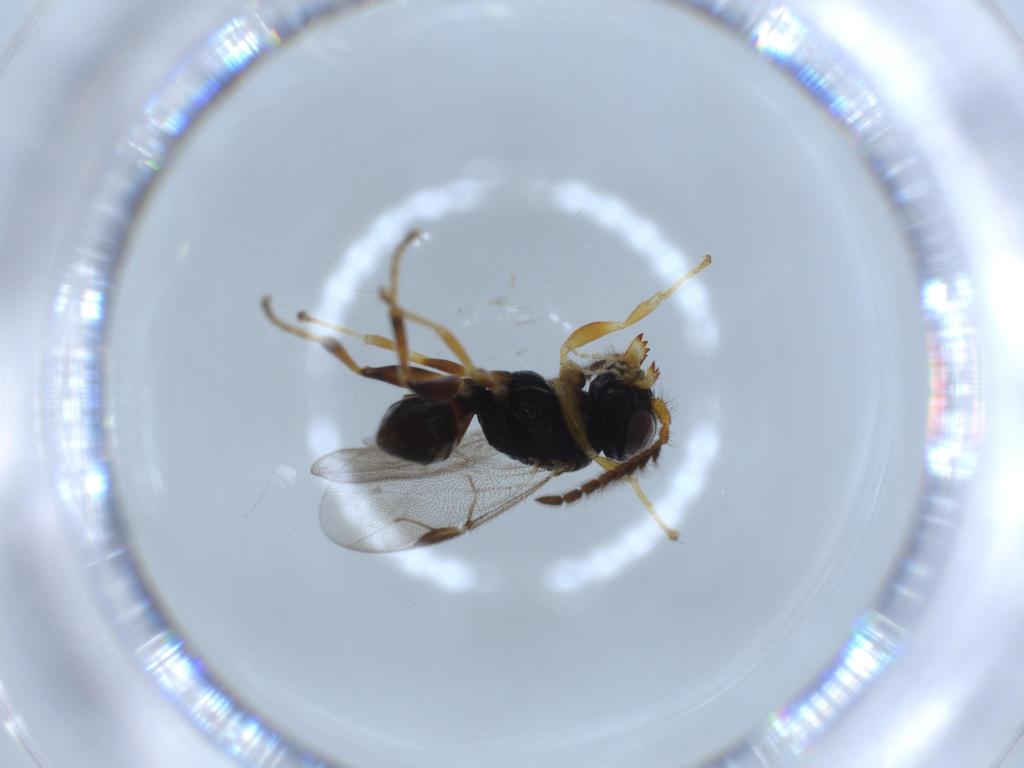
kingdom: Animalia
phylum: Arthropoda
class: Insecta
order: Hymenoptera
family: Dryinidae
